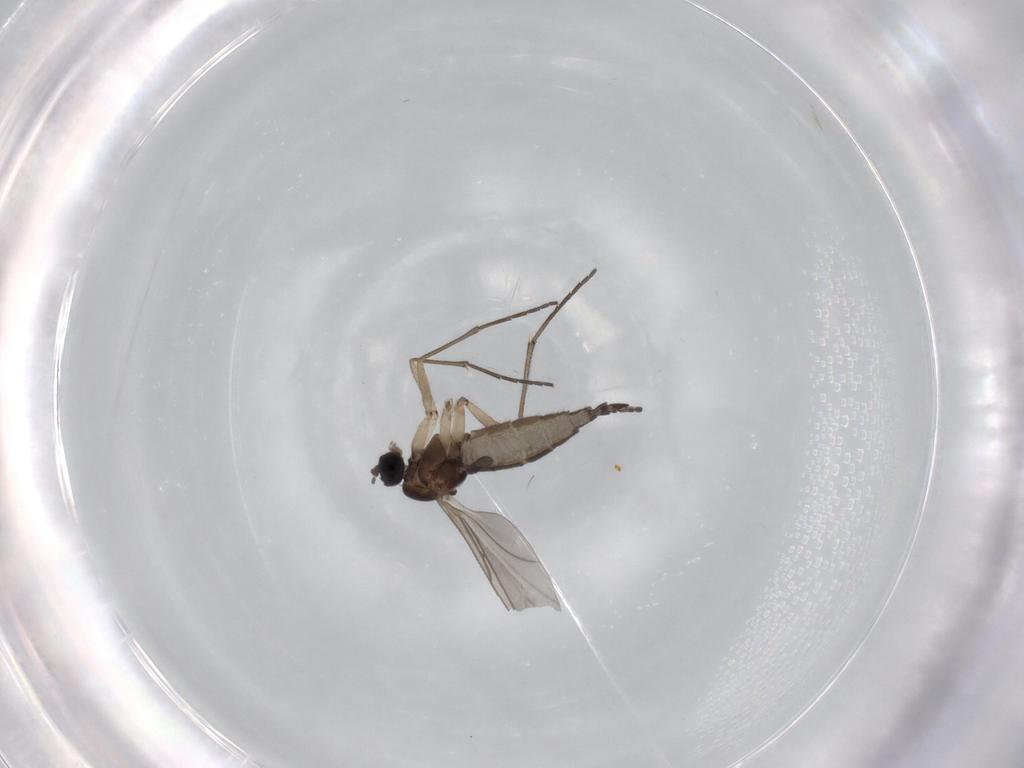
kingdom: Animalia
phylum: Arthropoda
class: Insecta
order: Diptera
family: Sciaridae
